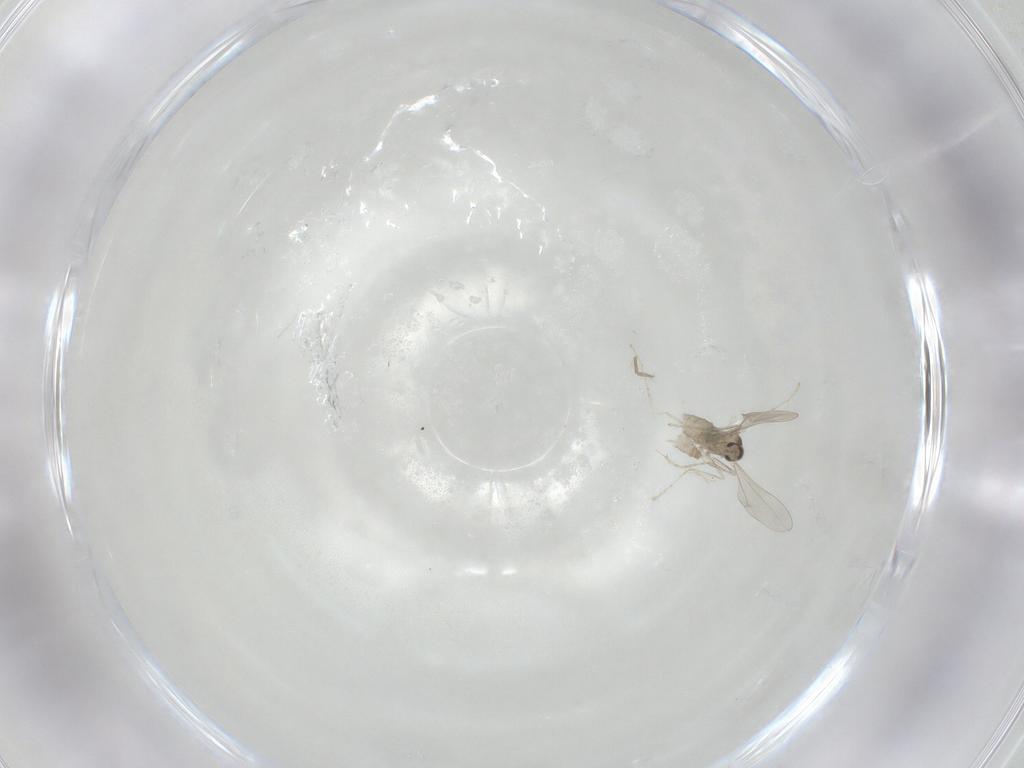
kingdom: Animalia
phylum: Arthropoda
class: Insecta
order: Diptera
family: Cecidomyiidae
